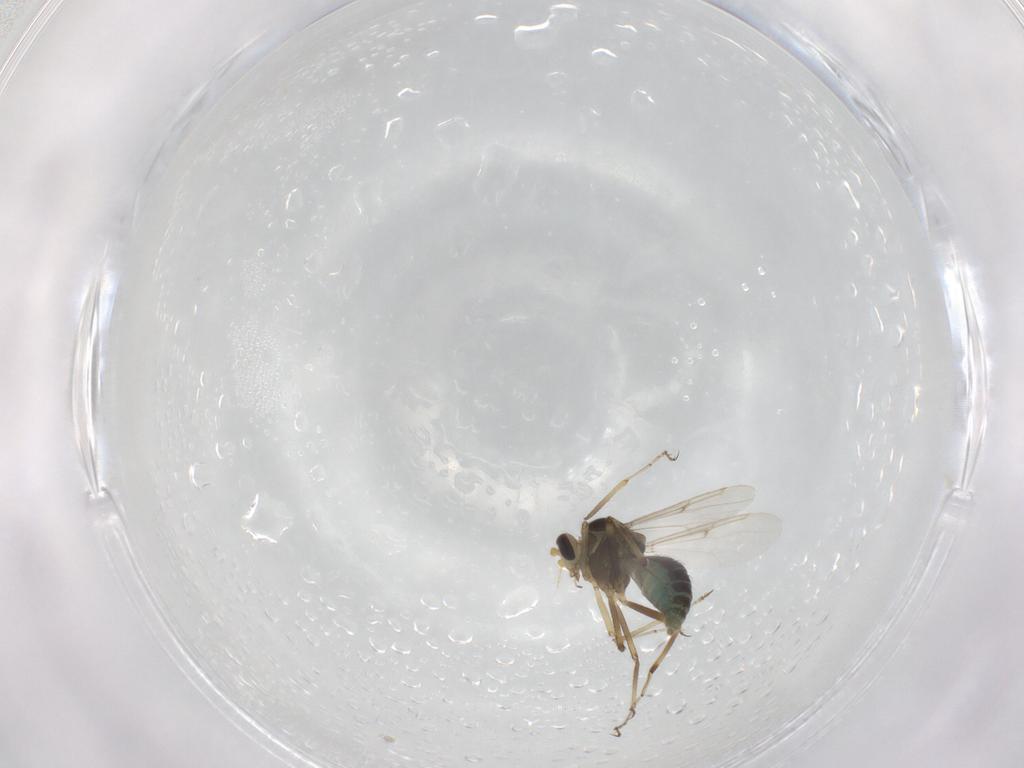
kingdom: Animalia
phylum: Arthropoda
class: Insecta
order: Diptera
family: Ceratopogonidae
